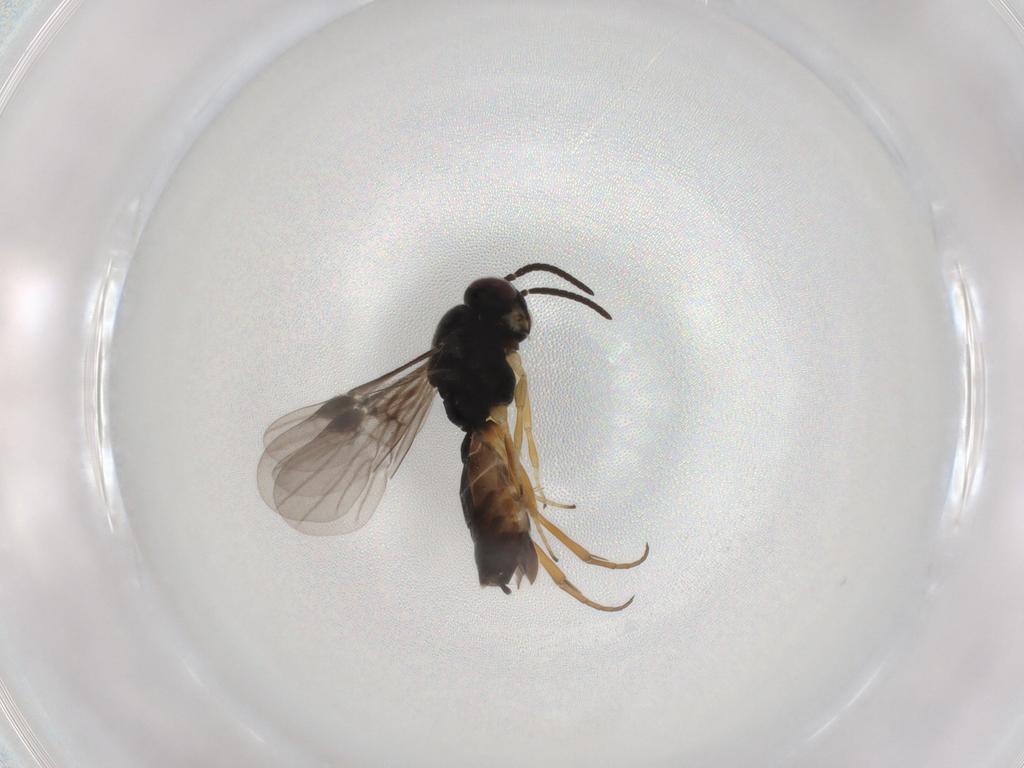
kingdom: Animalia
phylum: Arthropoda
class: Insecta
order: Hymenoptera
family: Braconidae
